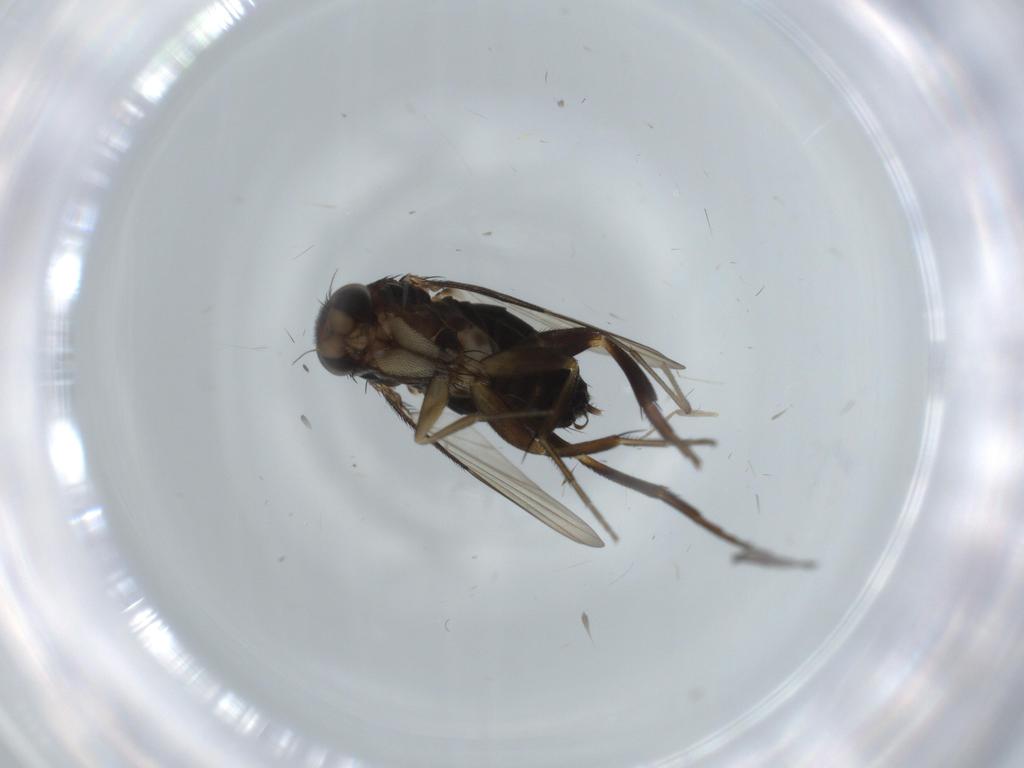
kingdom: Animalia
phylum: Arthropoda
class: Insecta
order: Diptera
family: Phoridae
